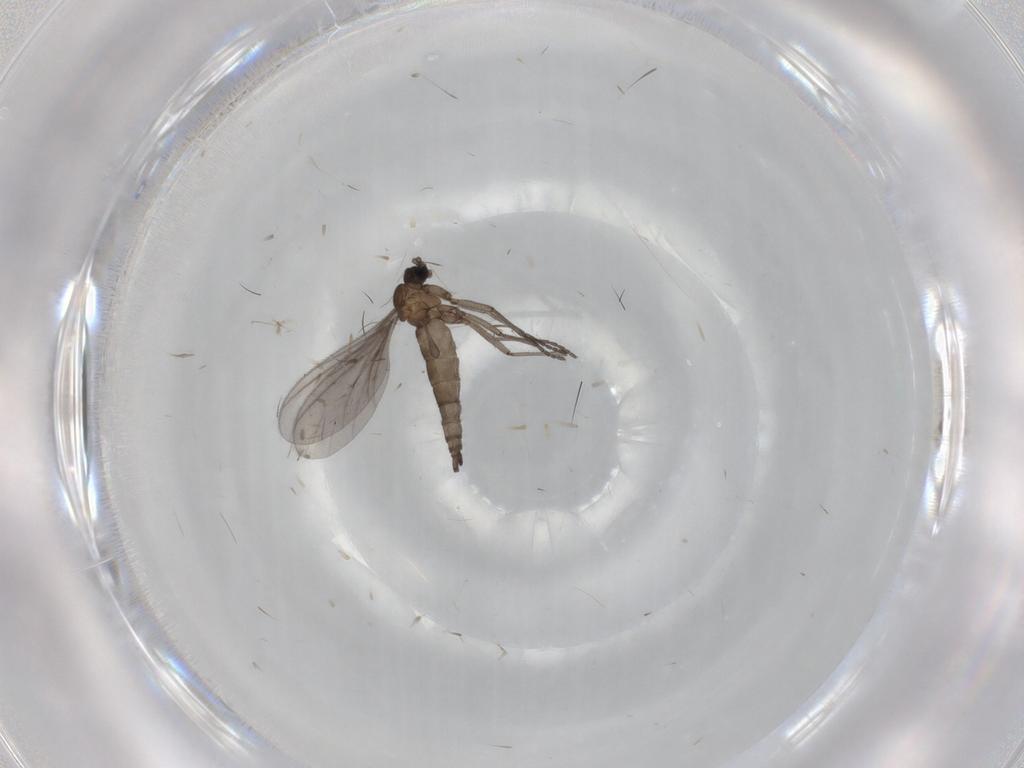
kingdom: Animalia
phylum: Arthropoda
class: Insecta
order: Diptera
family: Sciaridae
